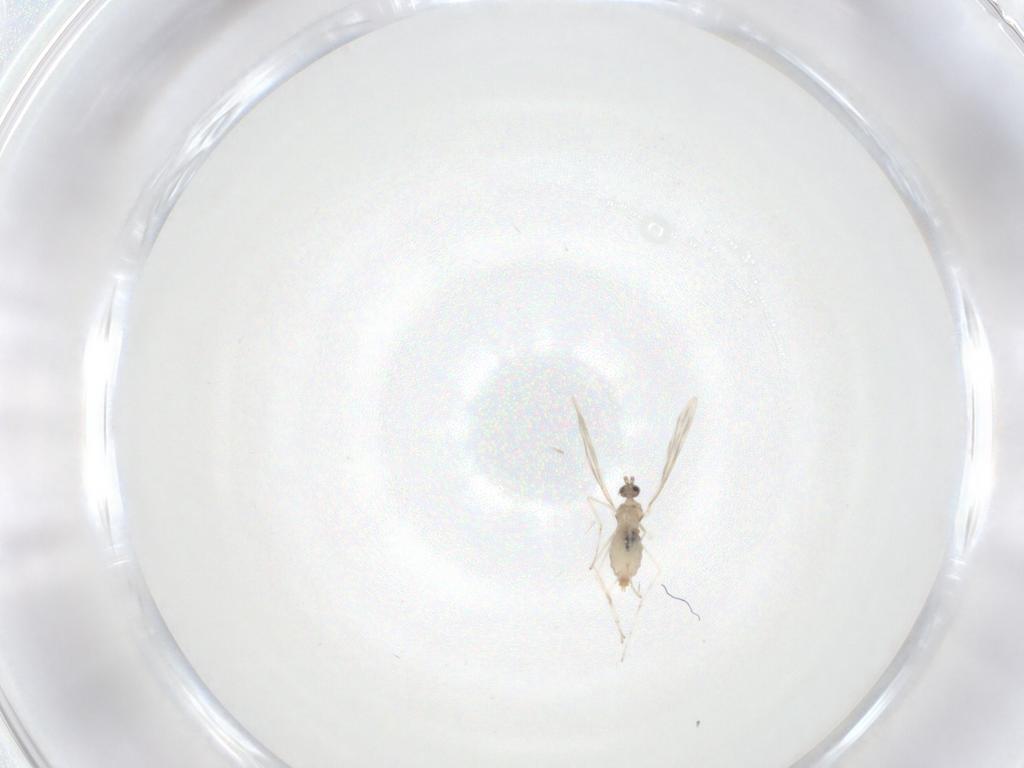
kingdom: Animalia
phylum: Arthropoda
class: Insecta
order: Diptera
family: Cecidomyiidae
